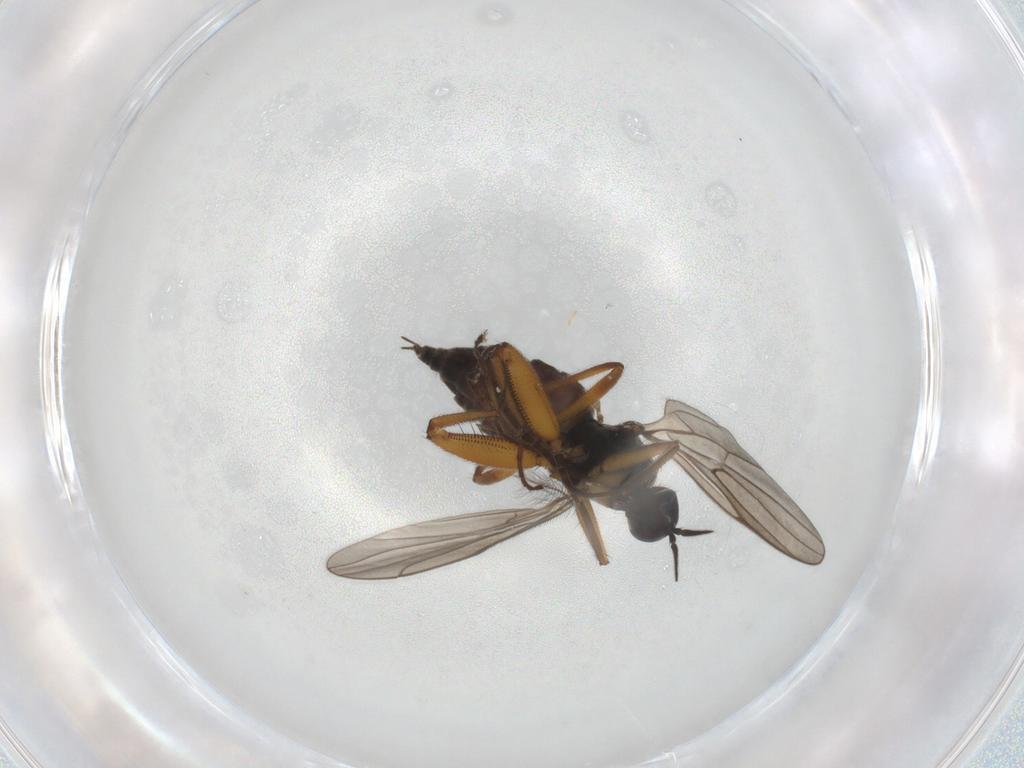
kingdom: Animalia
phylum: Arthropoda
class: Insecta
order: Diptera
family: Hybotidae
